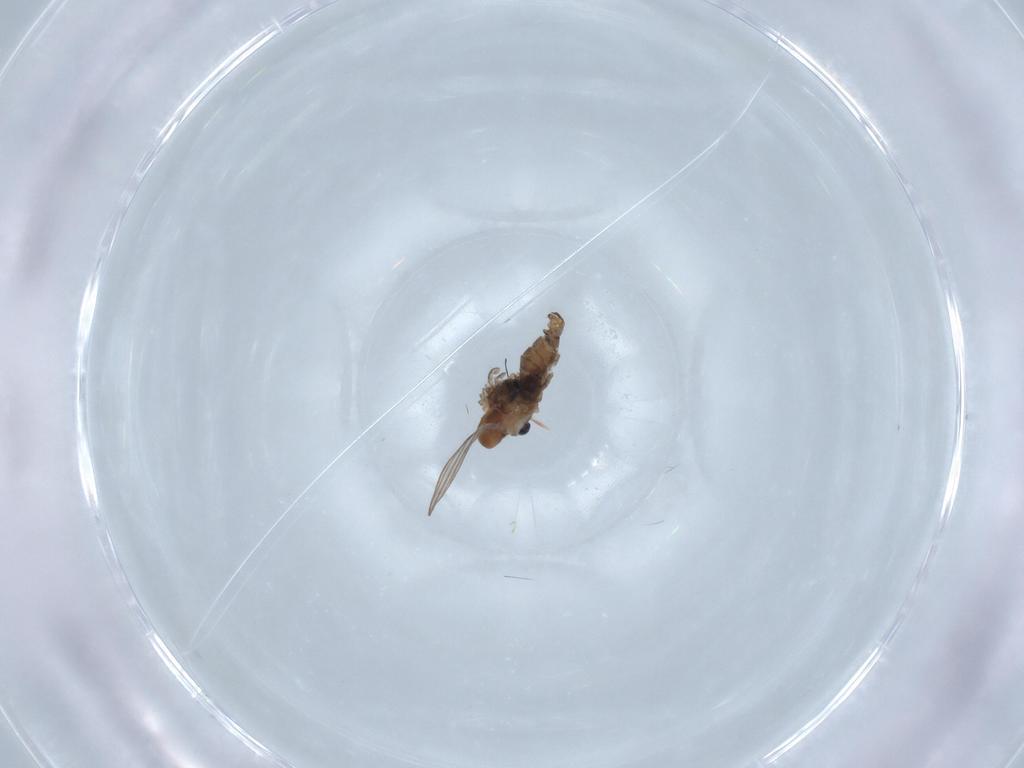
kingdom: Animalia
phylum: Arthropoda
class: Insecta
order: Diptera
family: Psychodidae
